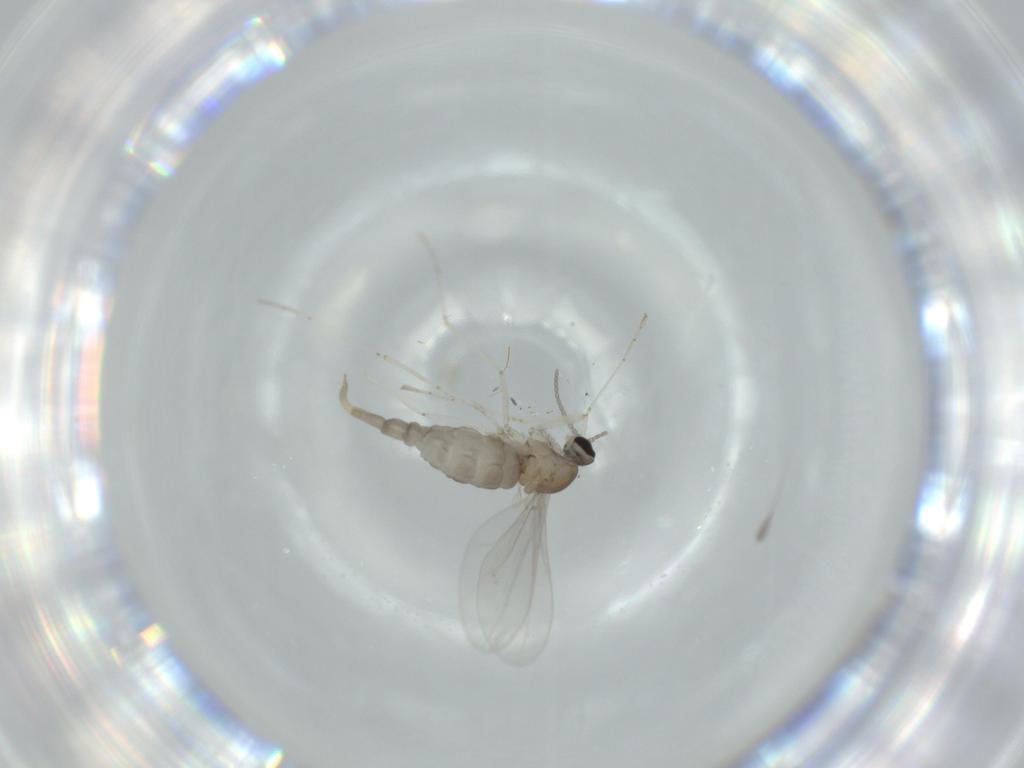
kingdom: Animalia
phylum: Arthropoda
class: Insecta
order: Diptera
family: Cecidomyiidae
